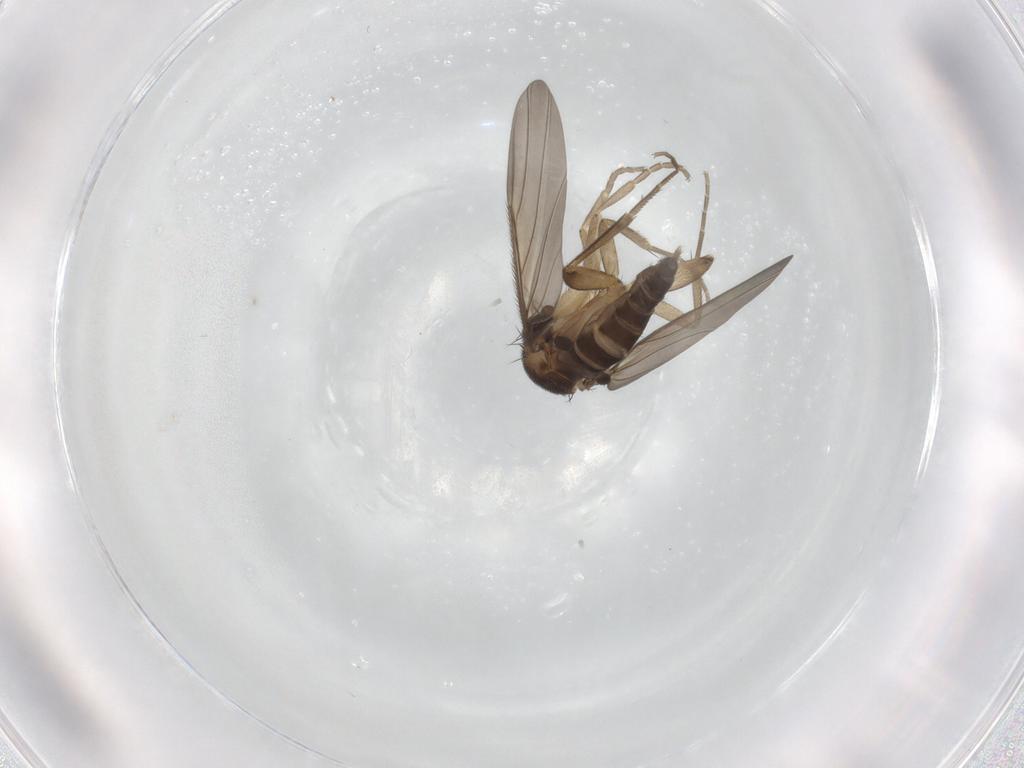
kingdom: Animalia
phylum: Arthropoda
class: Insecta
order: Diptera
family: Phoridae
